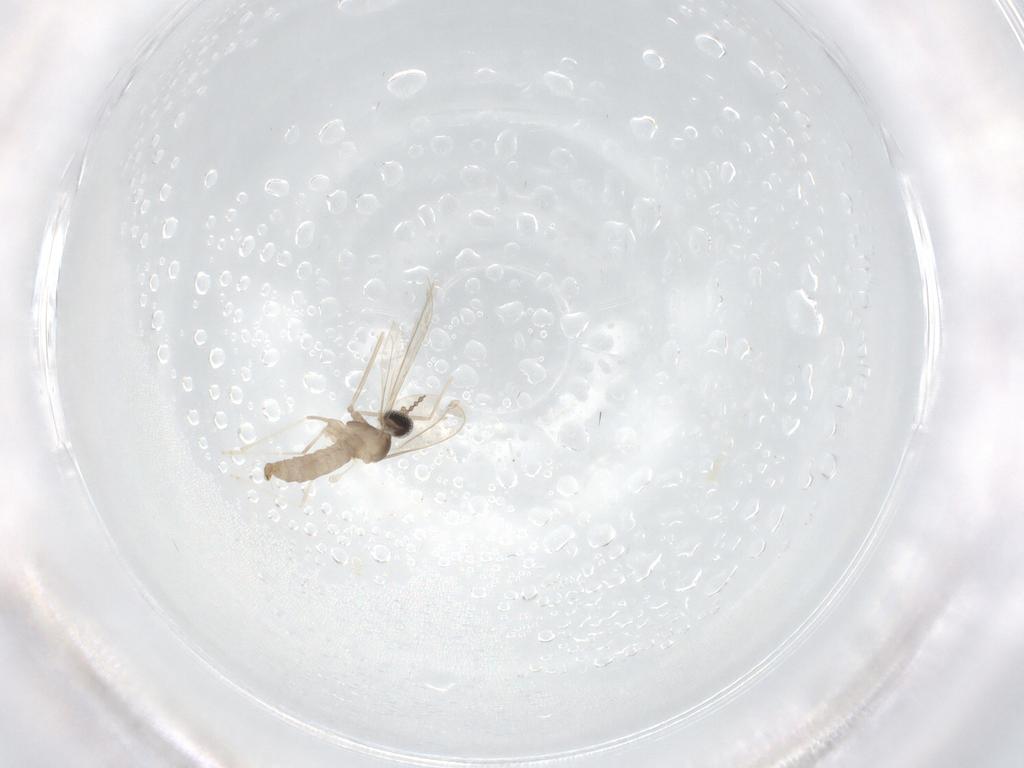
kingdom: Animalia
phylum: Arthropoda
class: Insecta
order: Diptera
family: Cecidomyiidae
